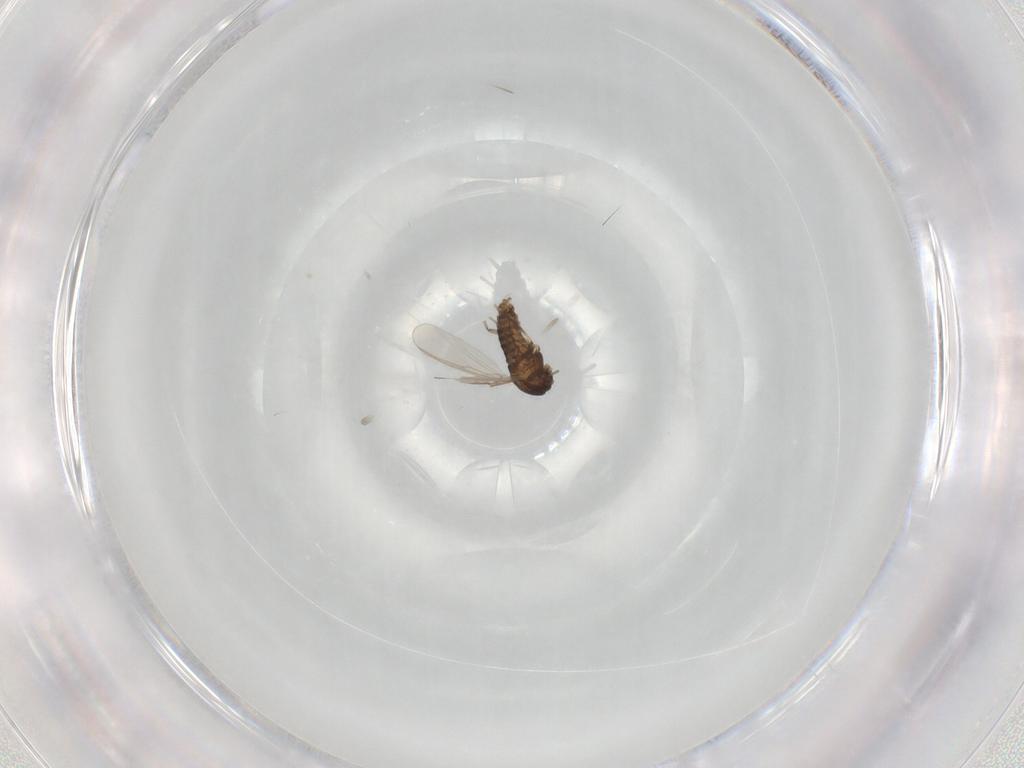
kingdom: Animalia
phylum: Arthropoda
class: Insecta
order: Diptera
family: Chironomidae
